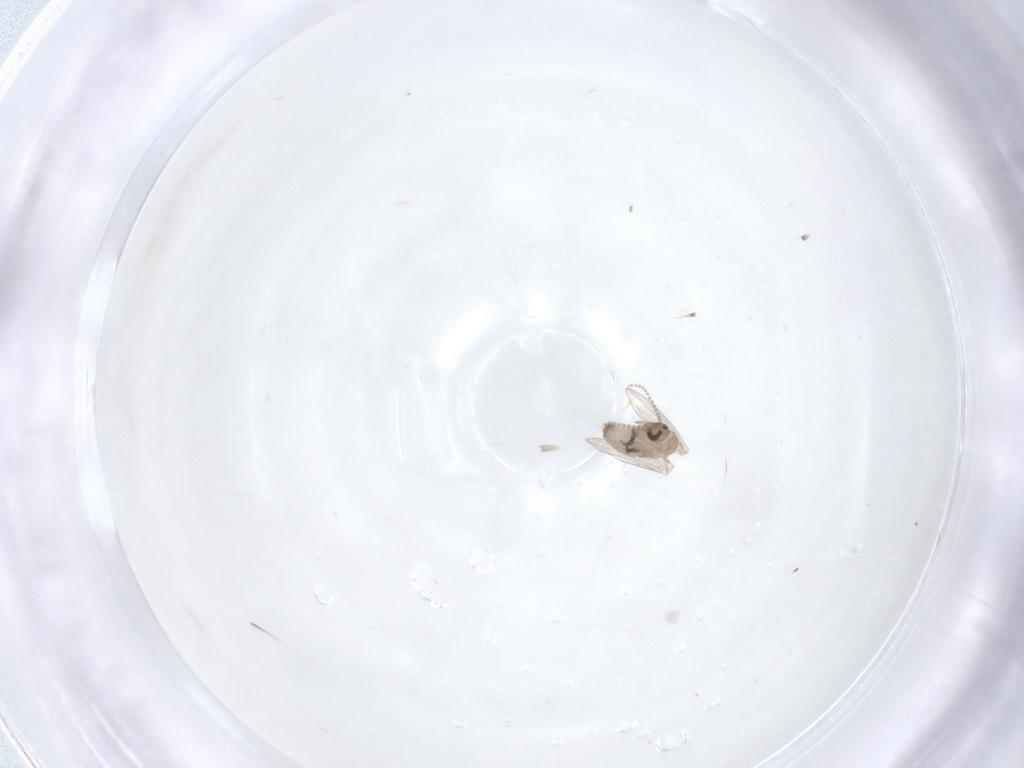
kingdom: Animalia
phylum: Arthropoda
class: Insecta
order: Diptera
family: Psychodidae
